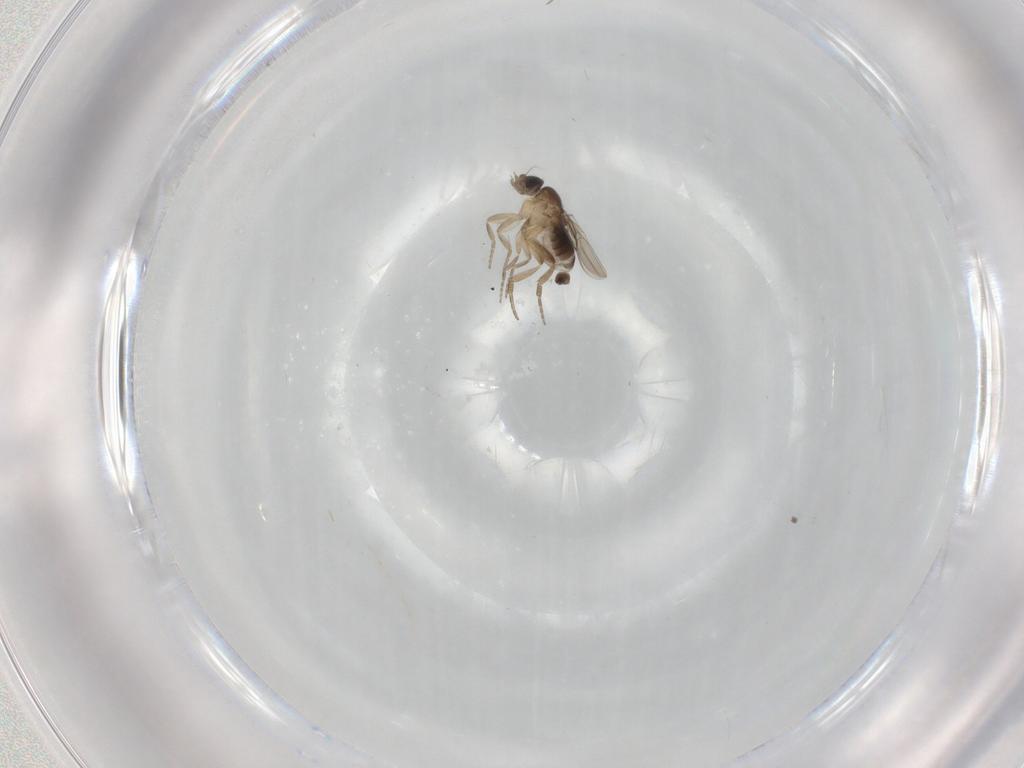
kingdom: Animalia
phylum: Arthropoda
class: Insecta
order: Diptera
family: Phoridae
